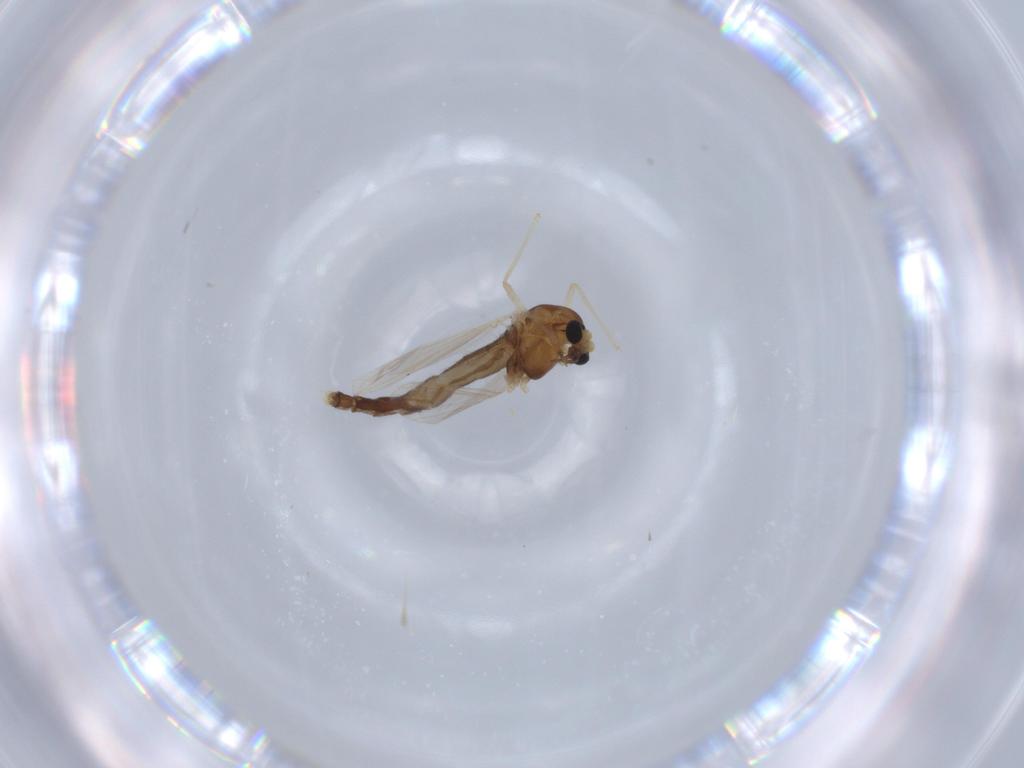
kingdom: Animalia
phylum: Arthropoda
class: Insecta
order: Diptera
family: Chironomidae
